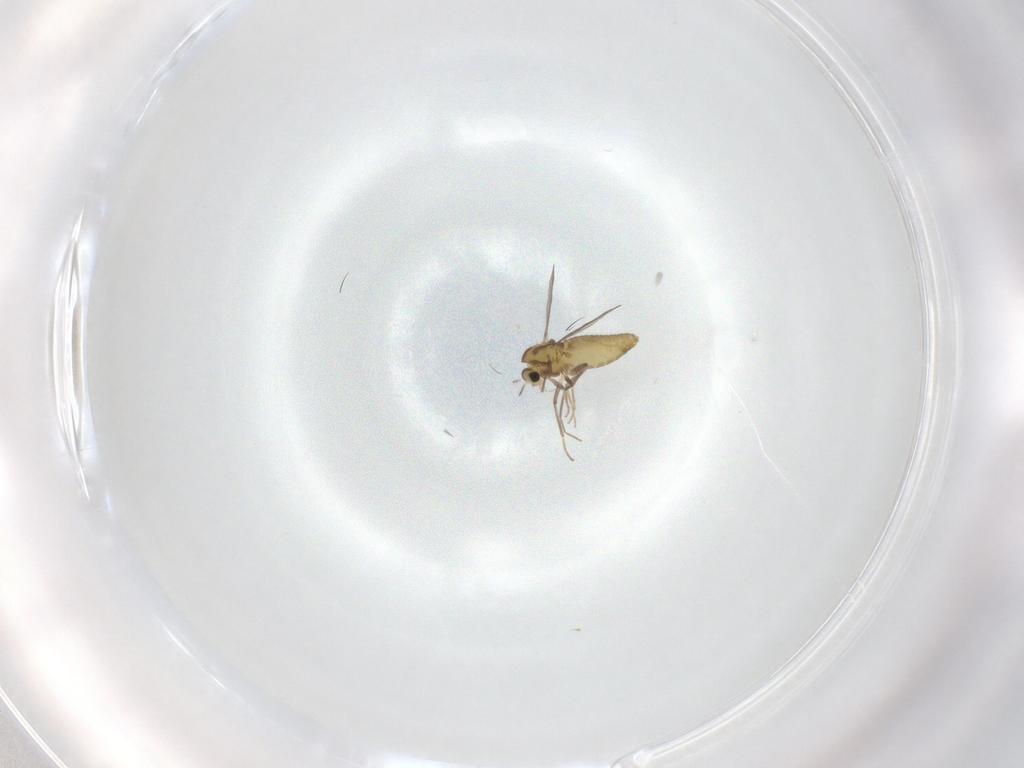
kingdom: Animalia
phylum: Arthropoda
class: Insecta
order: Diptera
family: Chironomidae
